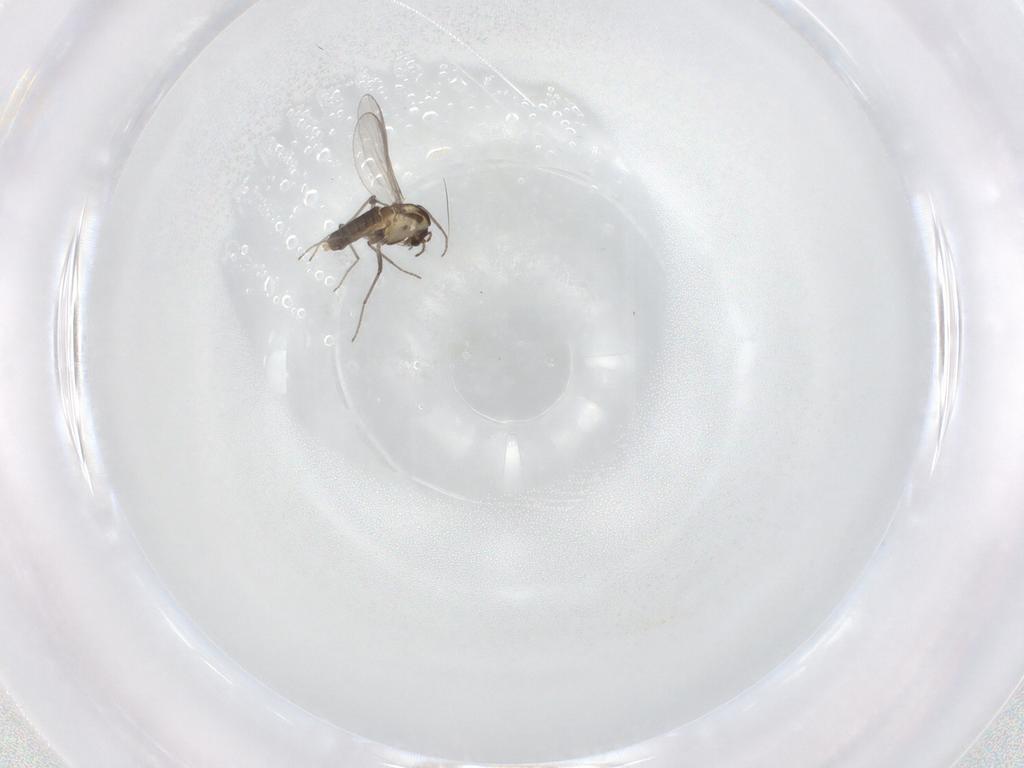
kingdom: Animalia
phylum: Arthropoda
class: Insecta
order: Diptera
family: Chironomidae
